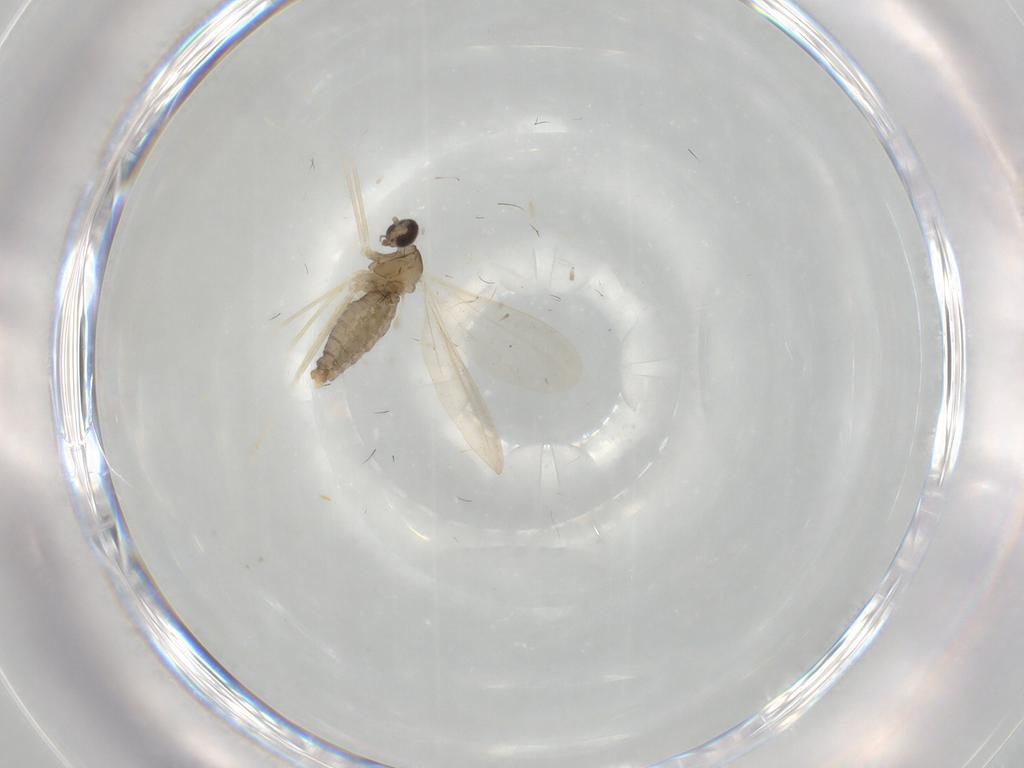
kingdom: Animalia
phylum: Arthropoda
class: Insecta
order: Diptera
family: Cecidomyiidae
